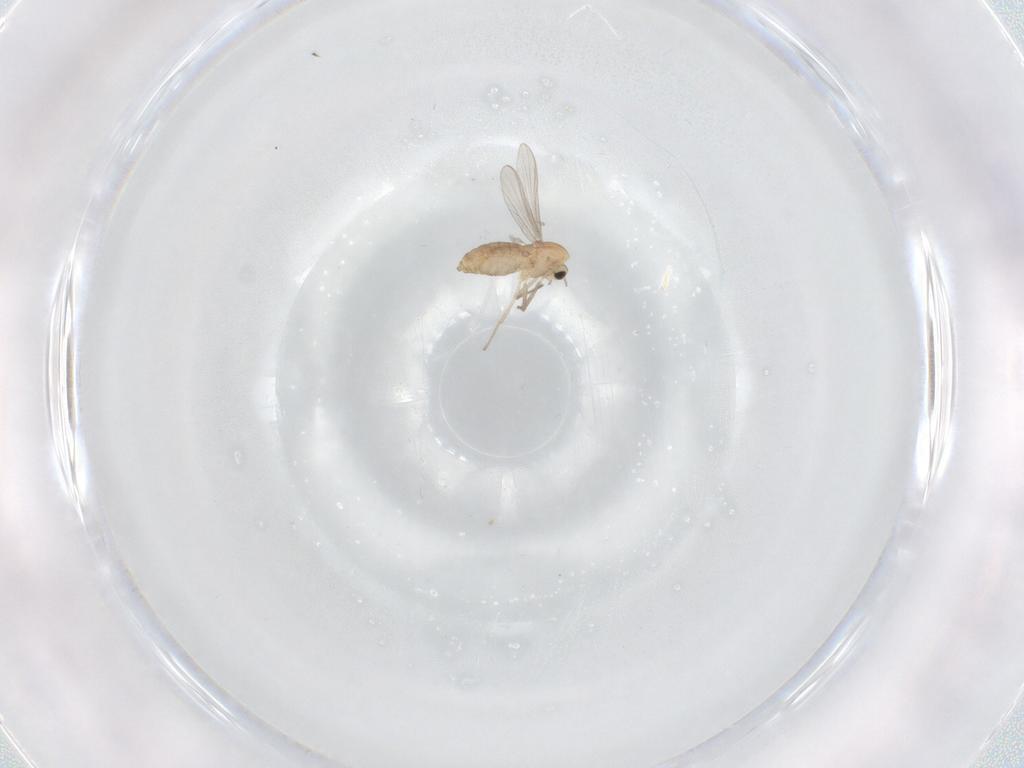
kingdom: Animalia
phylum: Arthropoda
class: Insecta
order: Diptera
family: Chironomidae
